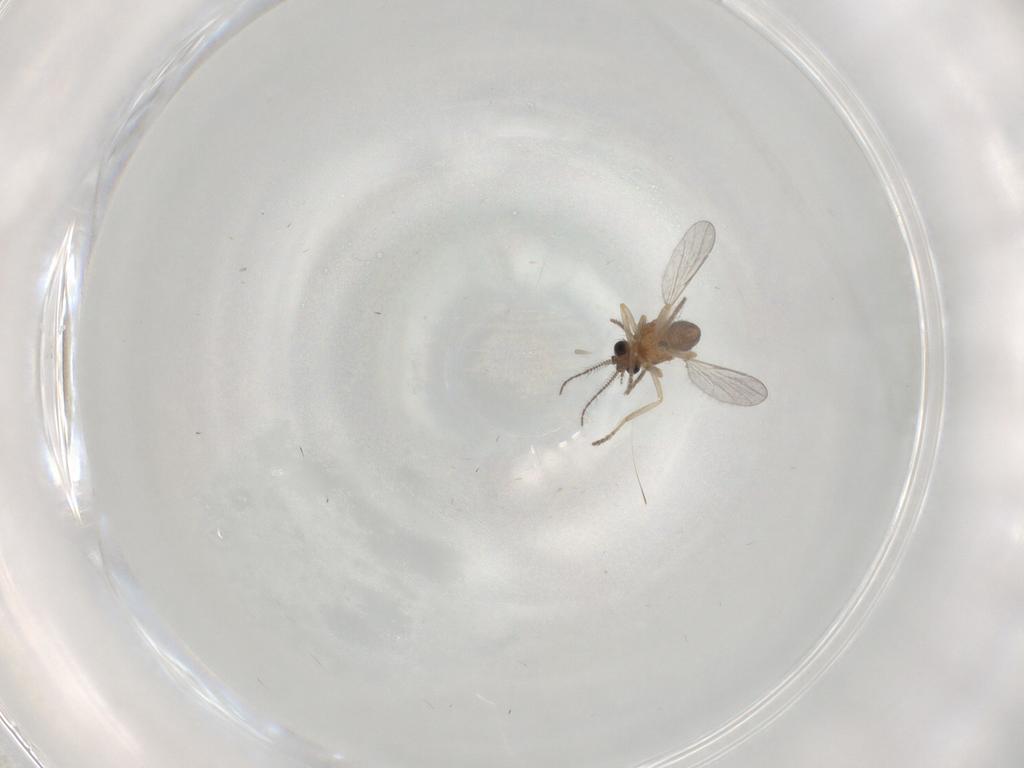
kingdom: Animalia
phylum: Arthropoda
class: Insecta
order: Diptera
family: Ceratopogonidae
